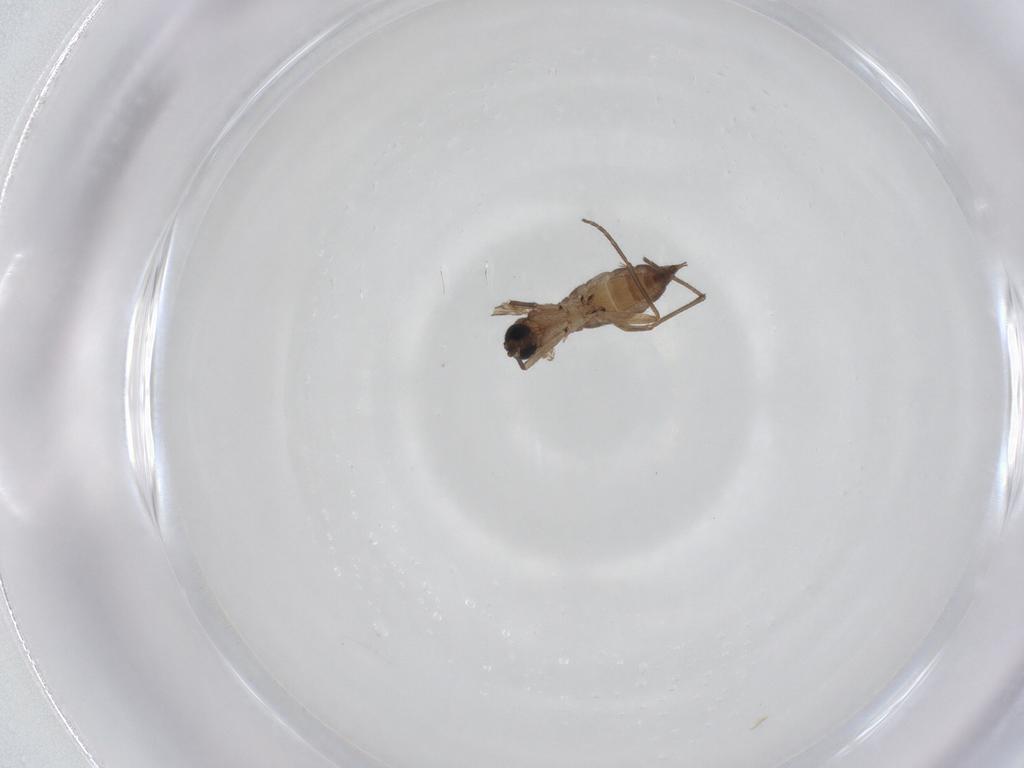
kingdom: Animalia
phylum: Arthropoda
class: Insecta
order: Diptera
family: Sciaridae
